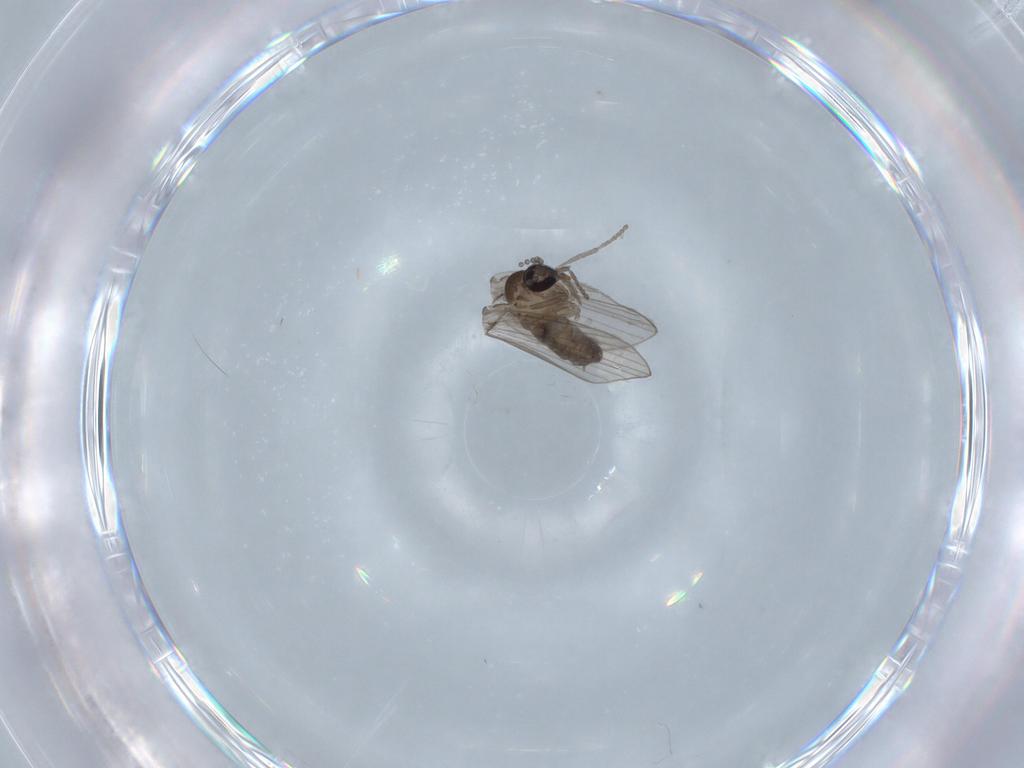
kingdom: Animalia
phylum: Arthropoda
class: Insecta
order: Diptera
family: Psychodidae
